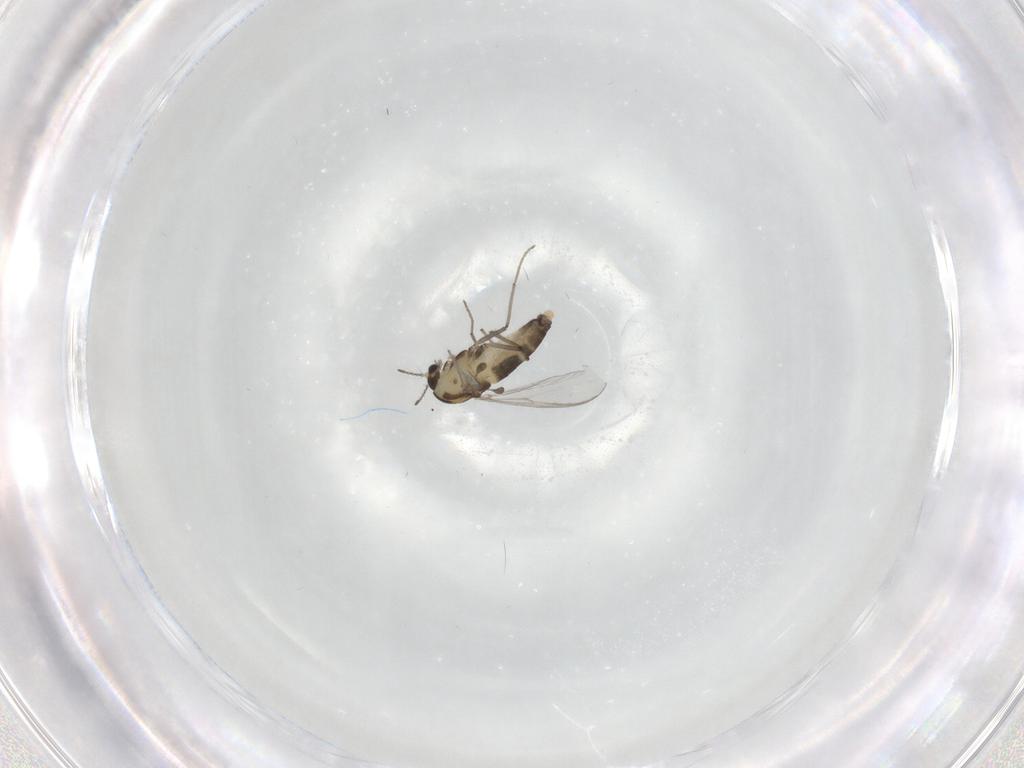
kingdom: Animalia
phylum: Arthropoda
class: Insecta
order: Diptera
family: Chironomidae
